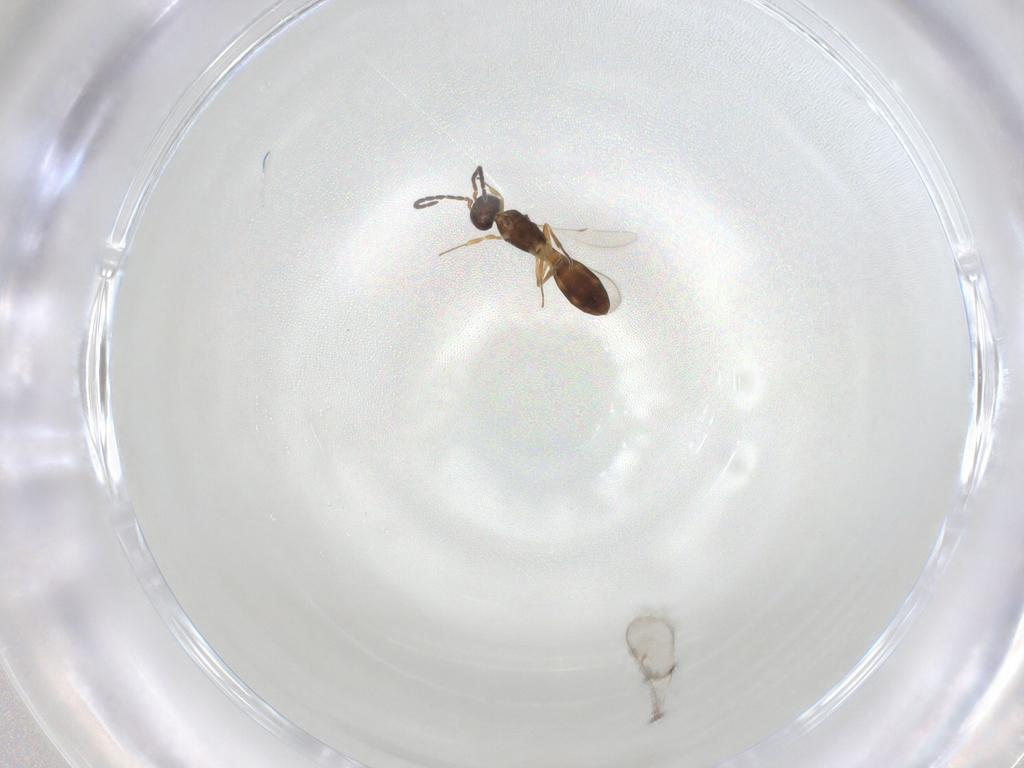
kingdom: Animalia
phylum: Arthropoda
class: Insecta
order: Hymenoptera
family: Scelionidae
